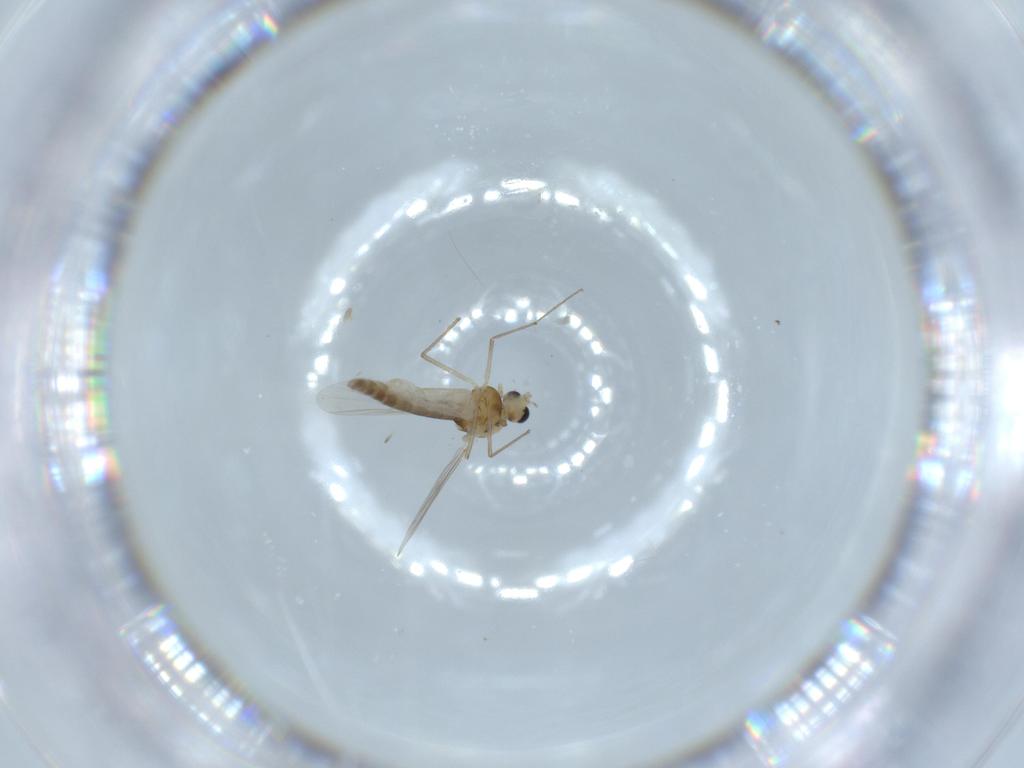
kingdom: Animalia
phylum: Arthropoda
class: Insecta
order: Diptera
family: Chironomidae
